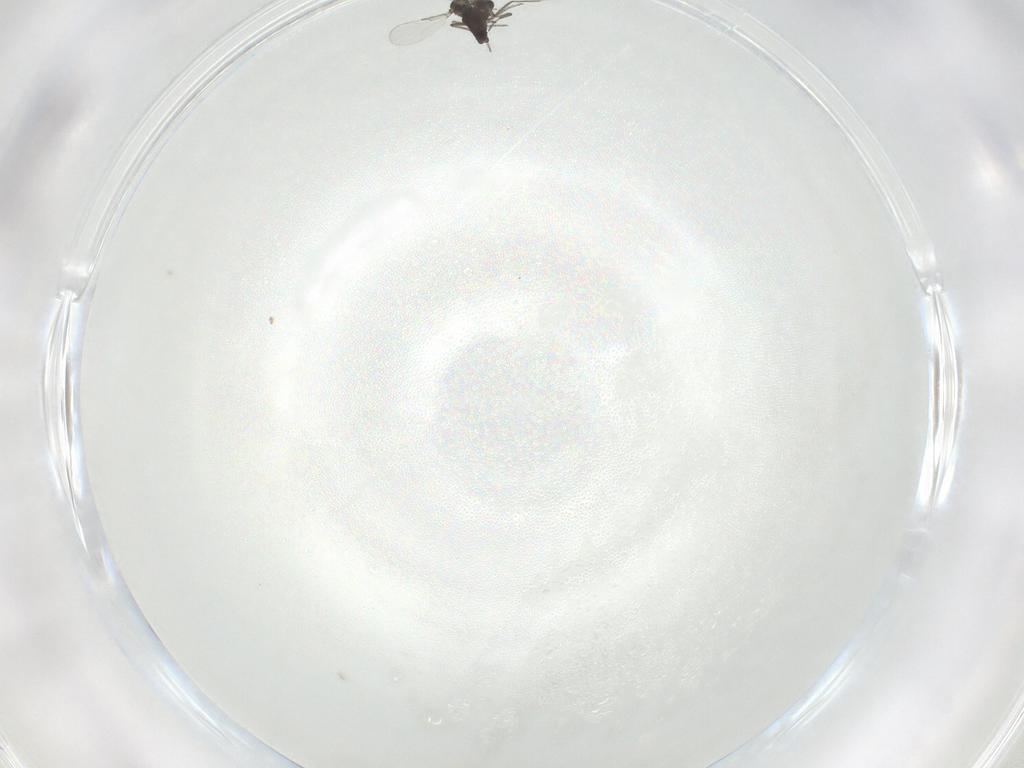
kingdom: Animalia
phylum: Arthropoda
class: Insecta
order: Diptera
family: Ceratopogonidae
